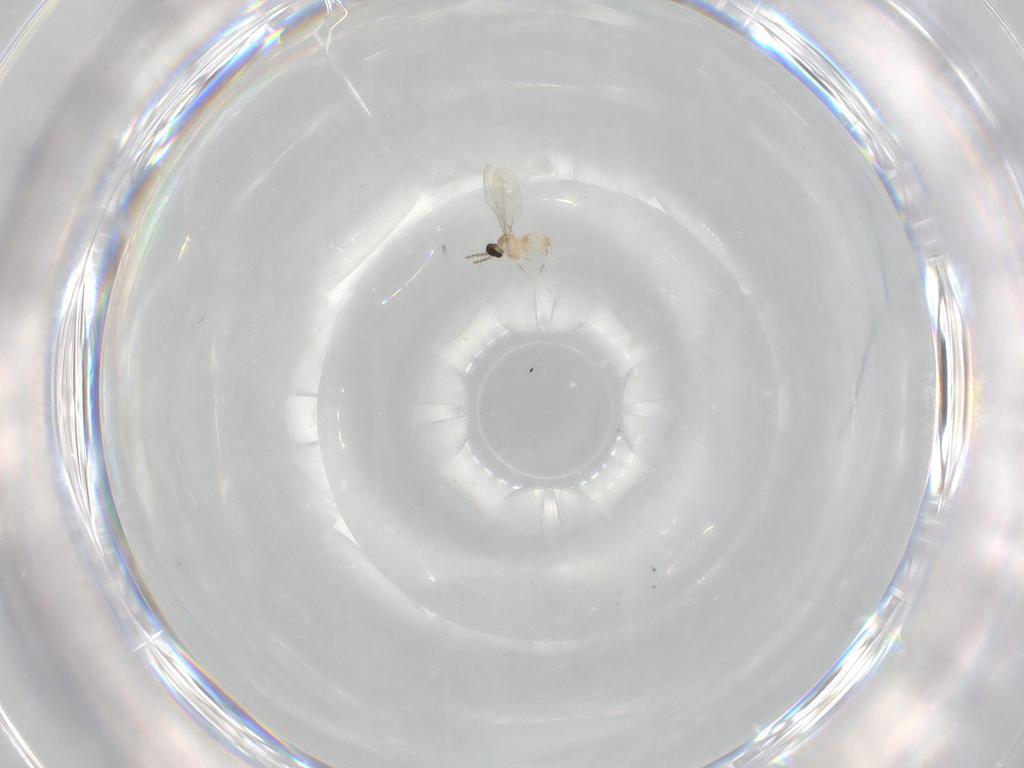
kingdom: Animalia
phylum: Arthropoda
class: Insecta
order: Diptera
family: Cecidomyiidae
